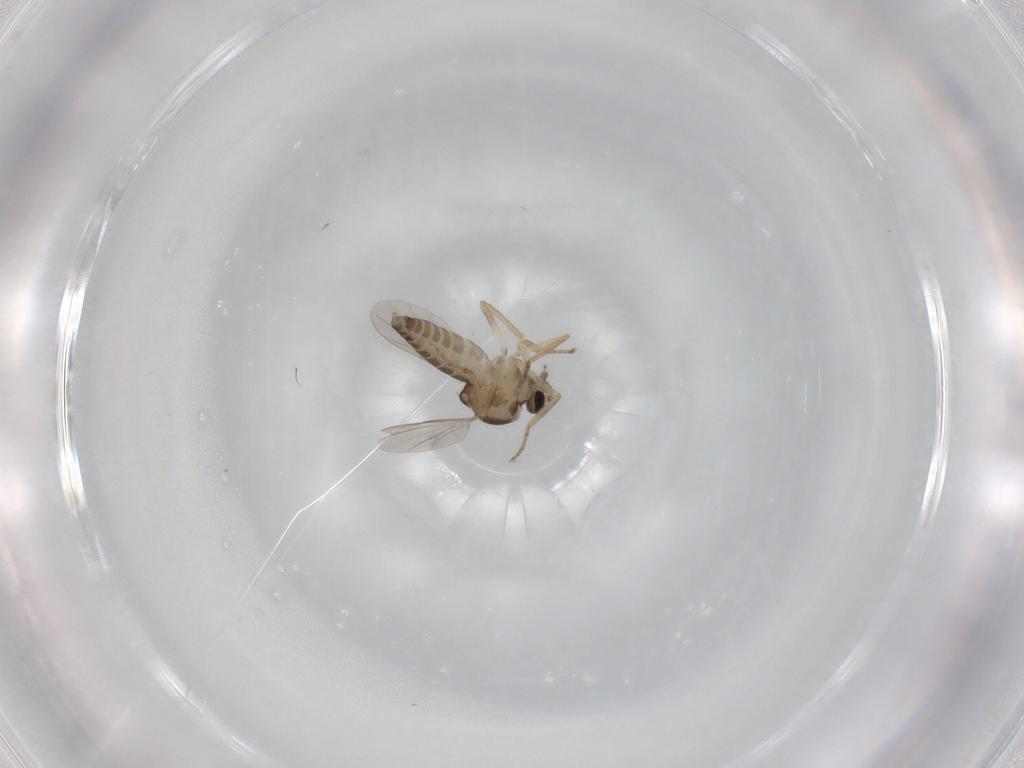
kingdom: Animalia
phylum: Arthropoda
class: Insecta
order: Diptera
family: Ceratopogonidae
